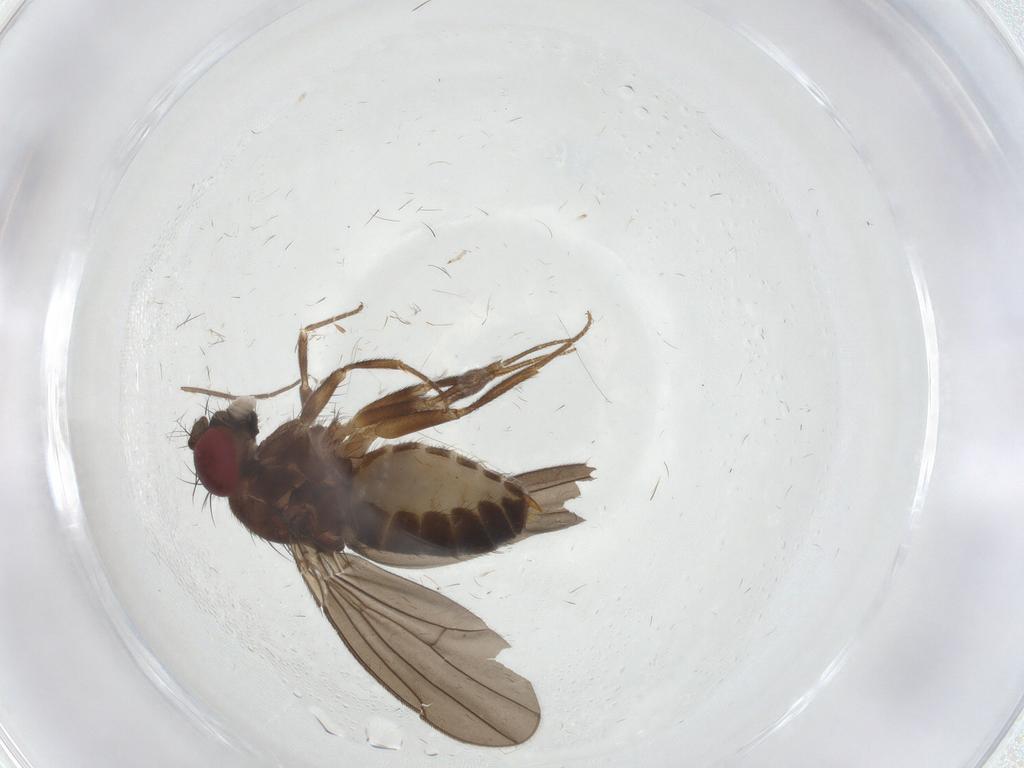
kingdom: Animalia
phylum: Arthropoda
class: Insecta
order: Diptera
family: Drosophilidae
